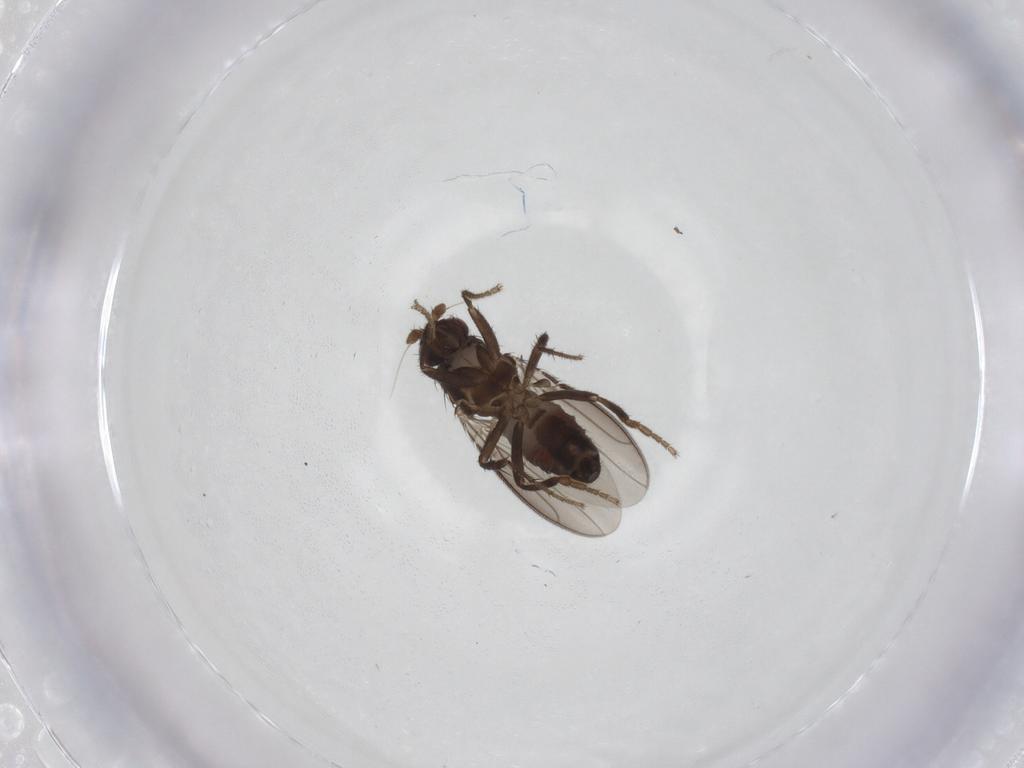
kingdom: Animalia
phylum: Arthropoda
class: Insecta
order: Diptera
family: Sphaeroceridae
